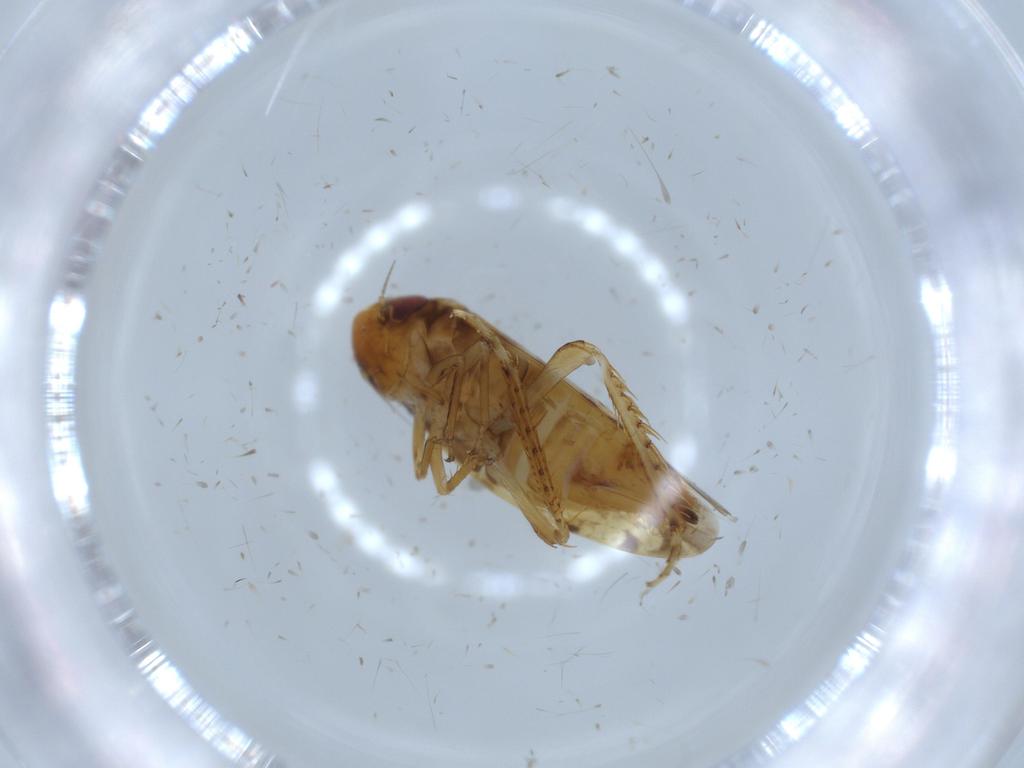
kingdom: Animalia
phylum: Arthropoda
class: Insecta
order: Hemiptera
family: Cicadellidae
